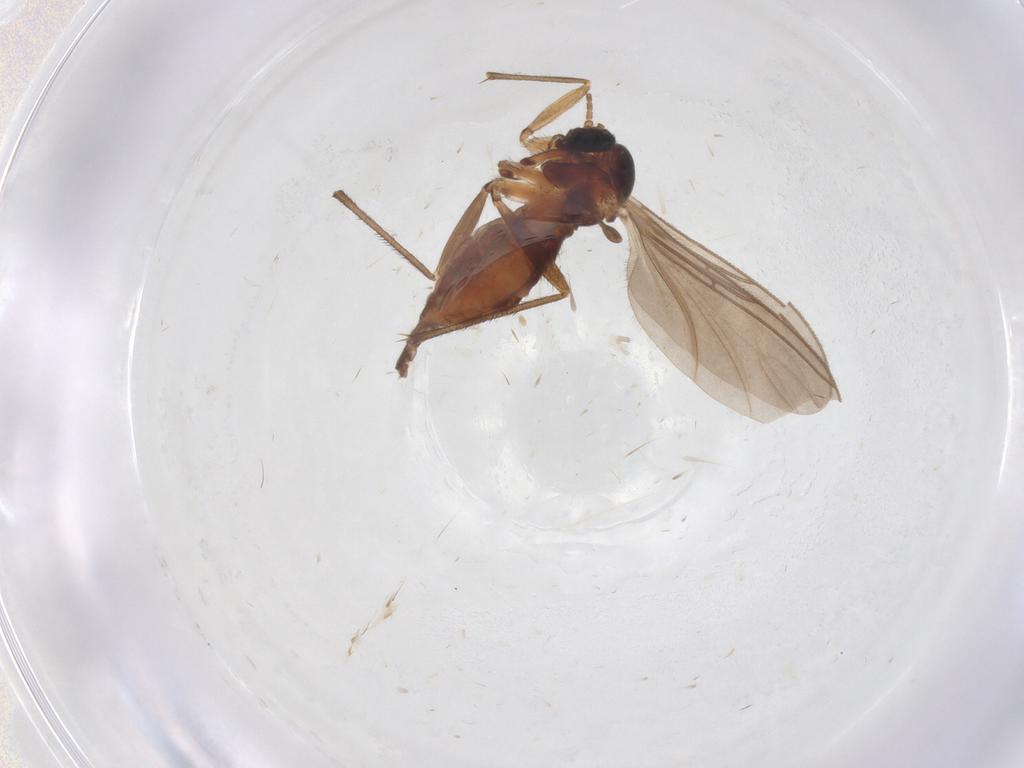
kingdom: Animalia
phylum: Arthropoda
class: Insecta
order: Diptera
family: Sciaridae
